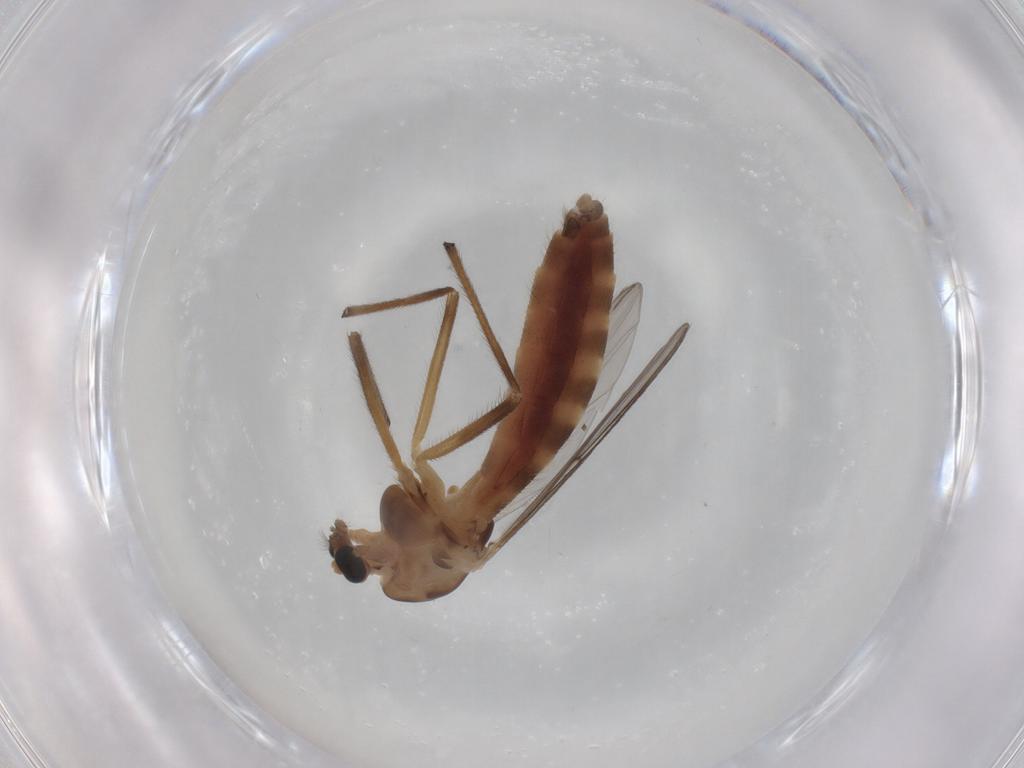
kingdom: Animalia
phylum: Arthropoda
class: Insecta
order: Diptera
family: Chironomidae
